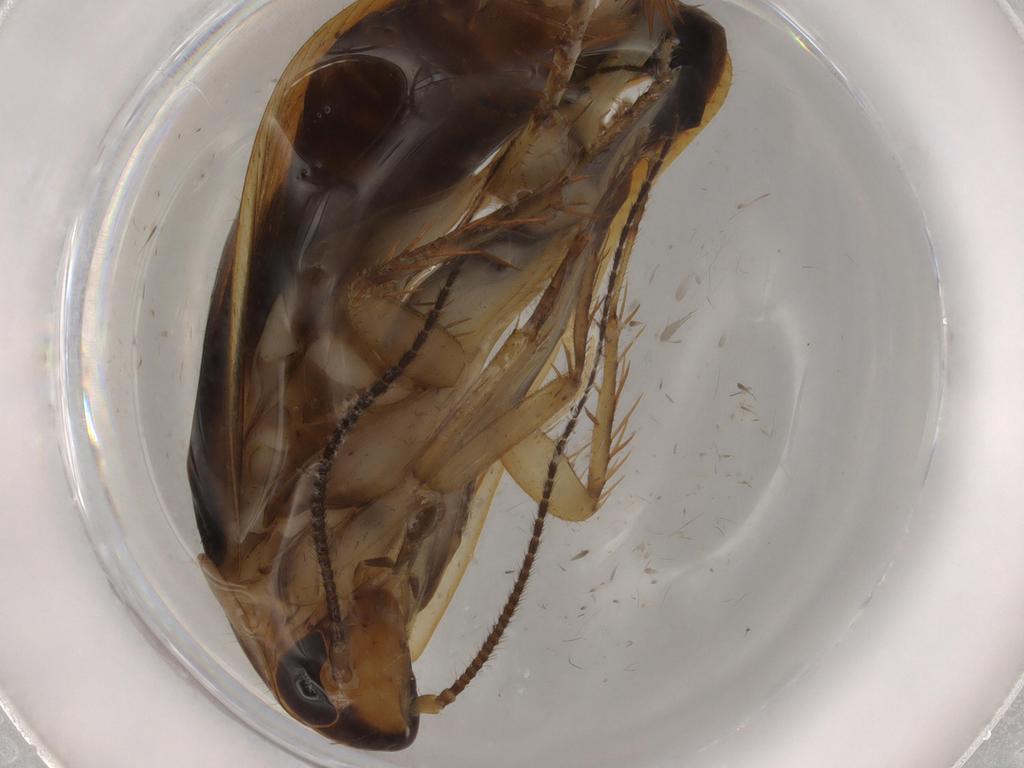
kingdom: Animalia
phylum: Arthropoda
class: Insecta
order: Blattodea
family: Ectobiidae
